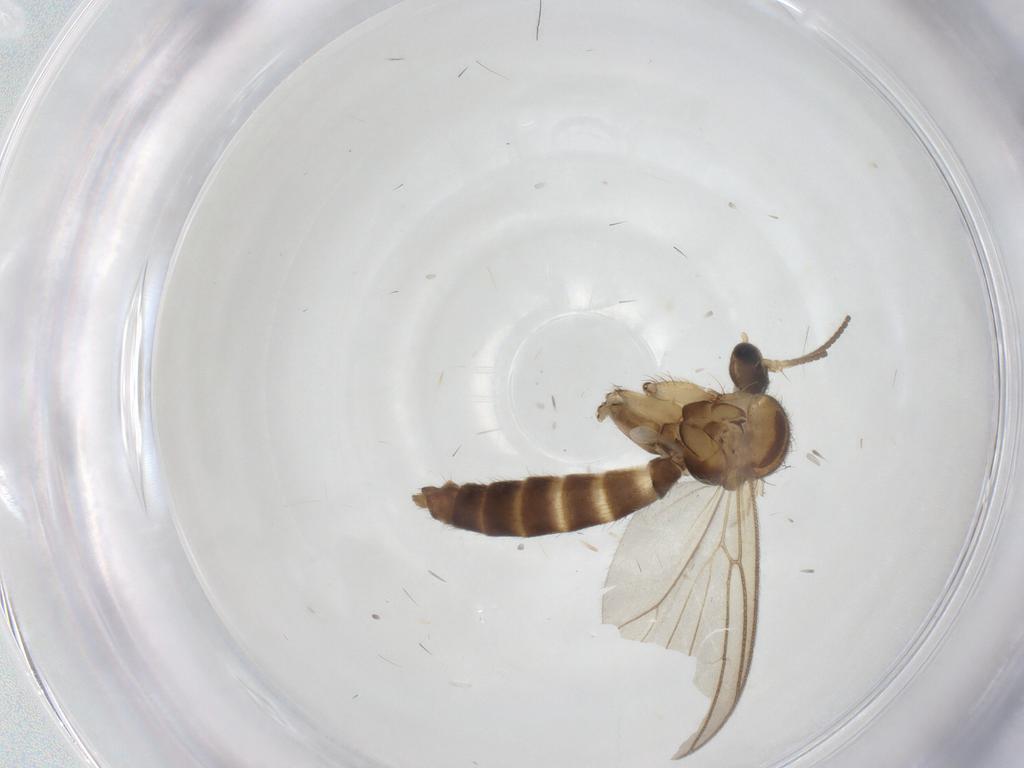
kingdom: Animalia
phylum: Arthropoda
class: Insecta
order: Diptera
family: Mycetophilidae
